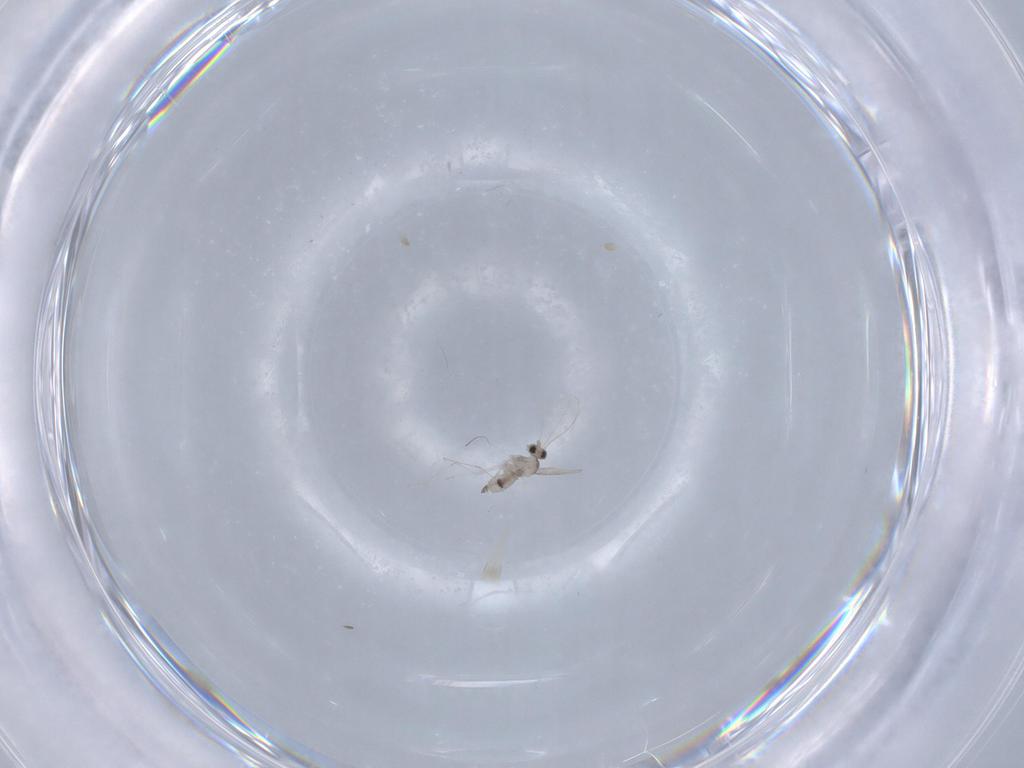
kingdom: Animalia
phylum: Arthropoda
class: Insecta
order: Diptera
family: Cecidomyiidae
